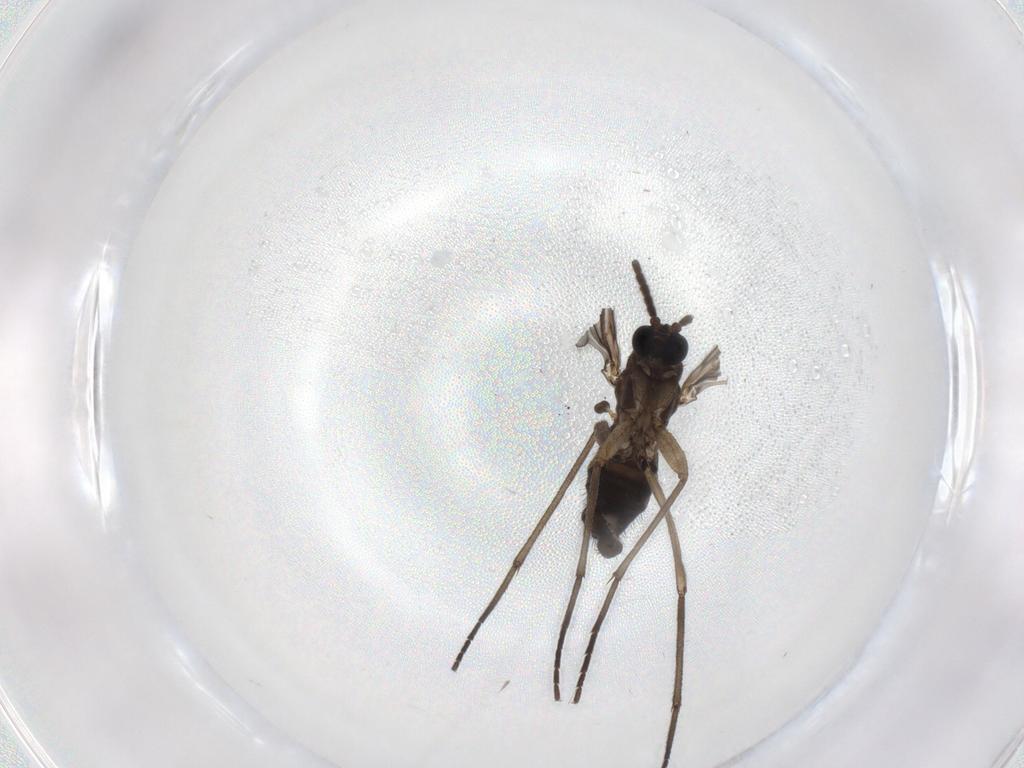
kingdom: Animalia
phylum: Arthropoda
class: Insecta
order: Diptera
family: Sciaridae
